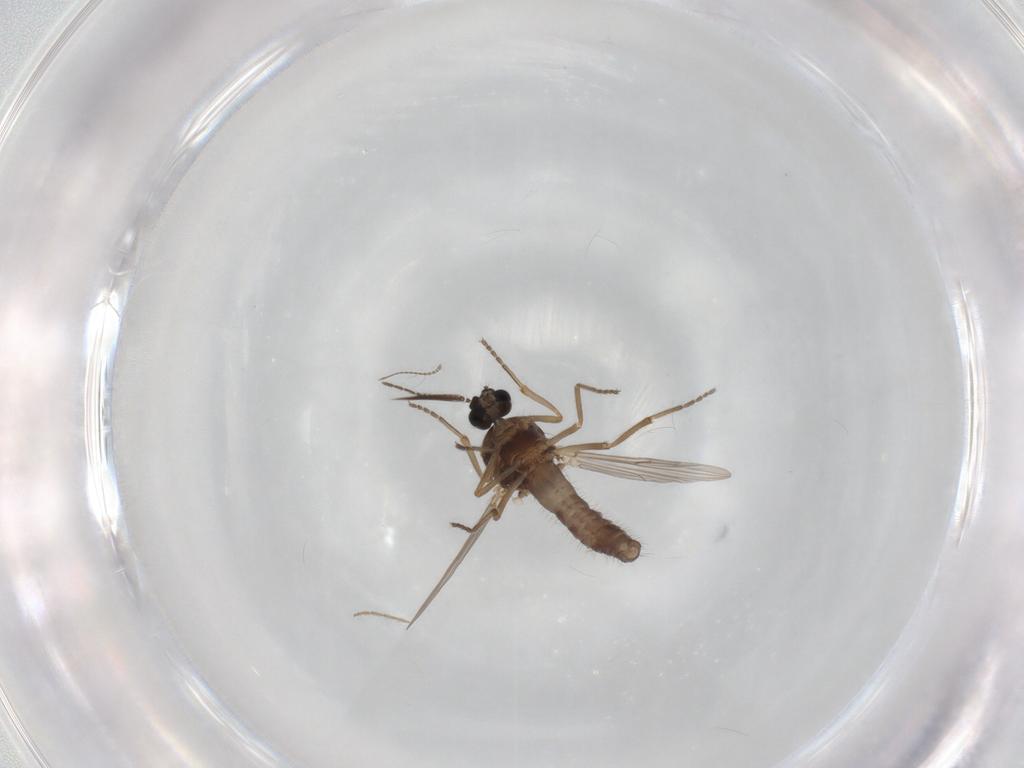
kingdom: Animalia
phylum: Arthropoda
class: Insecta
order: Diptera
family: Ceratopogonidae
